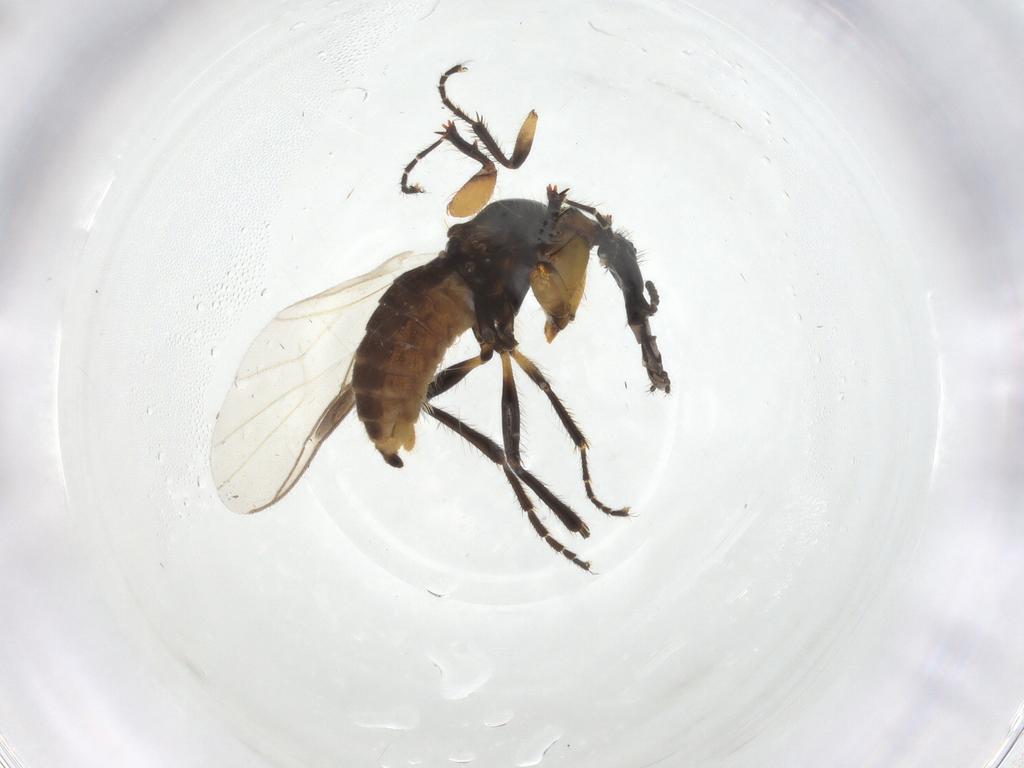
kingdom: Animalia
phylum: Arthropoda
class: Insecta
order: Diptera
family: Bibionidae
